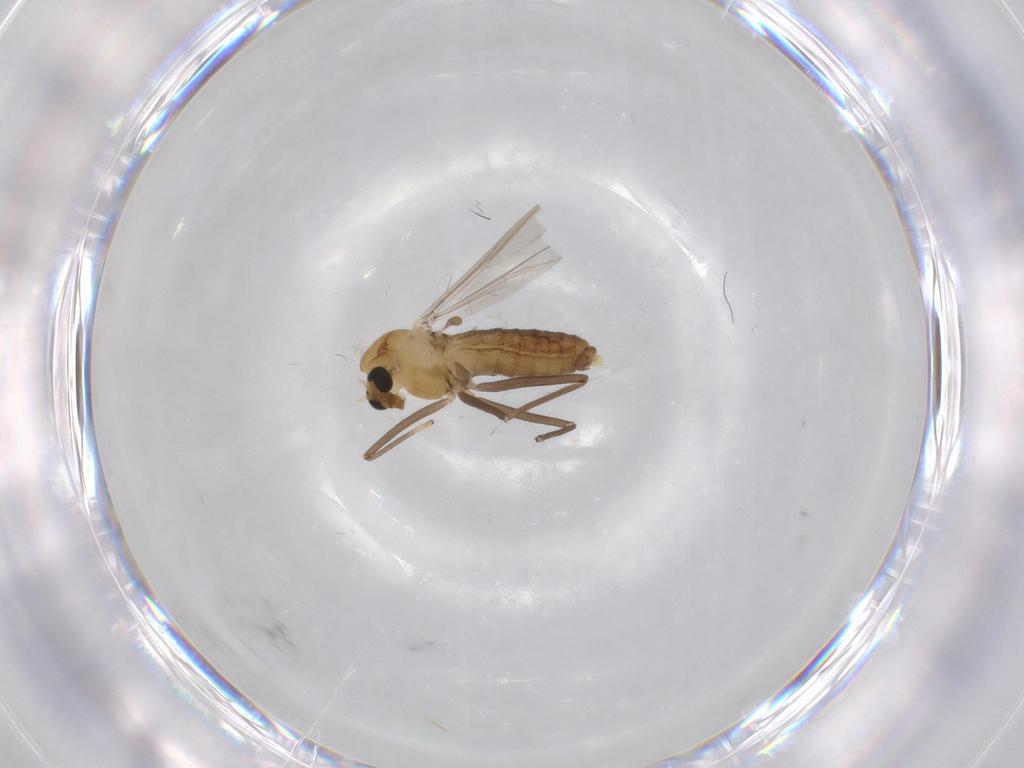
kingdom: Animalia
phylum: Arthropoda
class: Insecta
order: Diptera
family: Chironomidae
